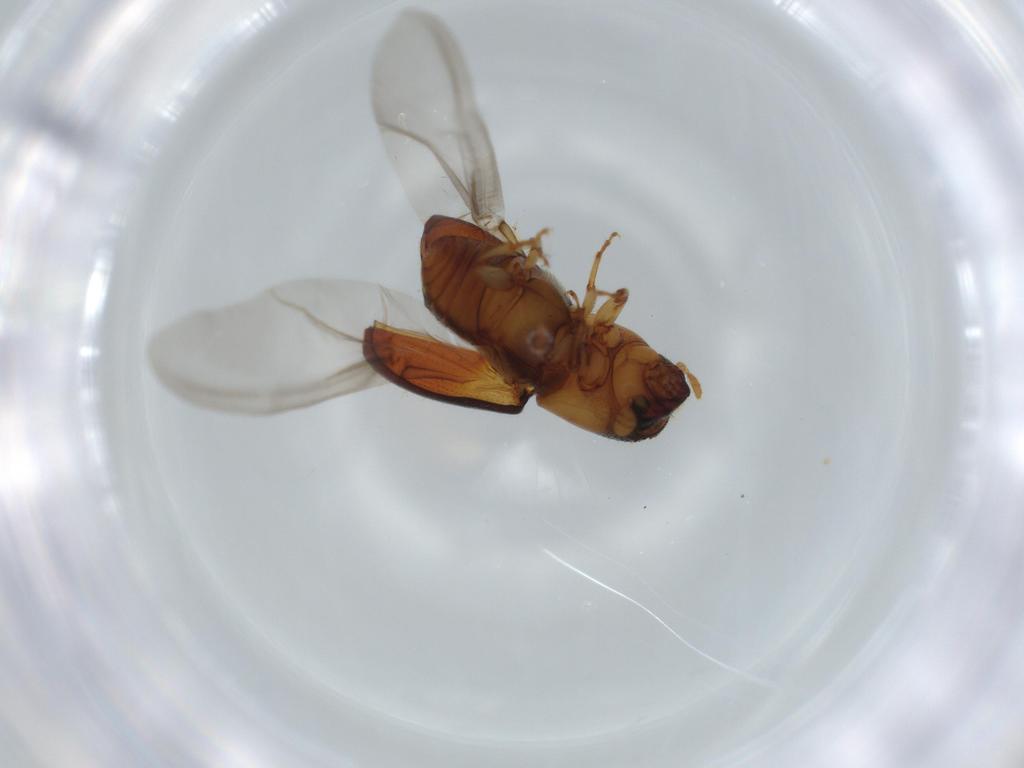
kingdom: Animalia
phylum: Arthropoda
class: Insecta
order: Coleoptera
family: Curculionidae
